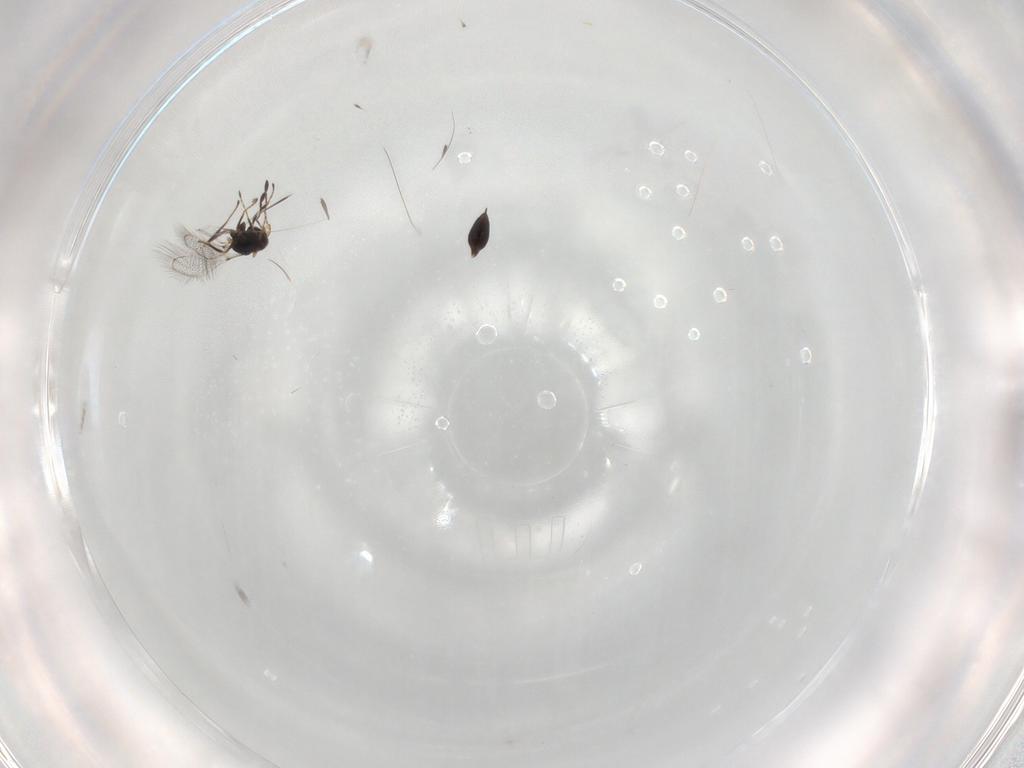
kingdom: Animalia
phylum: Arthropoda
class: Insecta
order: Hymenoptera
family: Mymaridae
